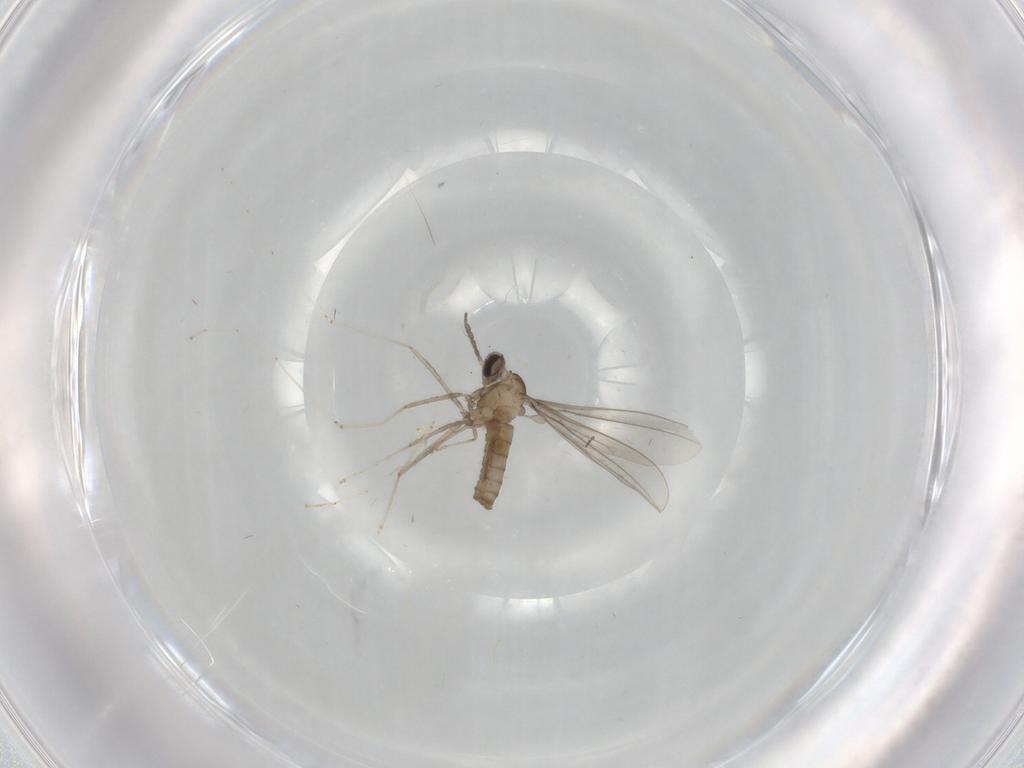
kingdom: Animalia
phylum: Arthropoda
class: Insecta
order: Diptera
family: Cecidomyiidae
